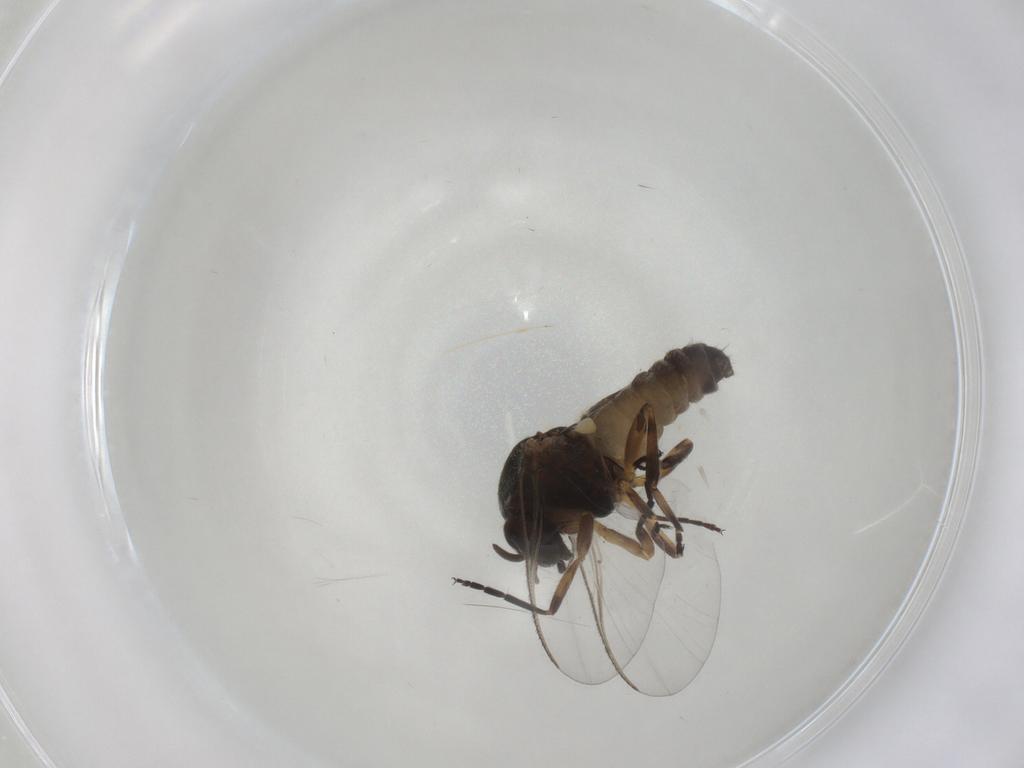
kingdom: Animalia
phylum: Arthropoda
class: Insecta
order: Diptera
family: Chironomidae
